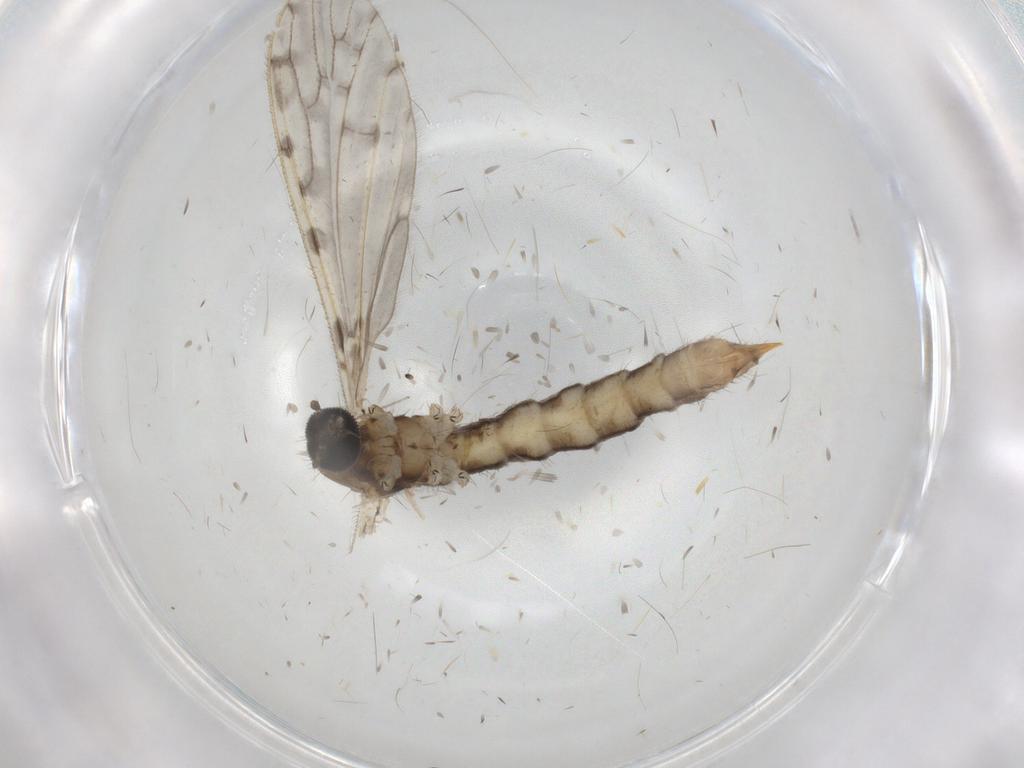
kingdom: Animalia
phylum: Arthropoda
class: Insecta
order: Diptera
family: Limoniidae
